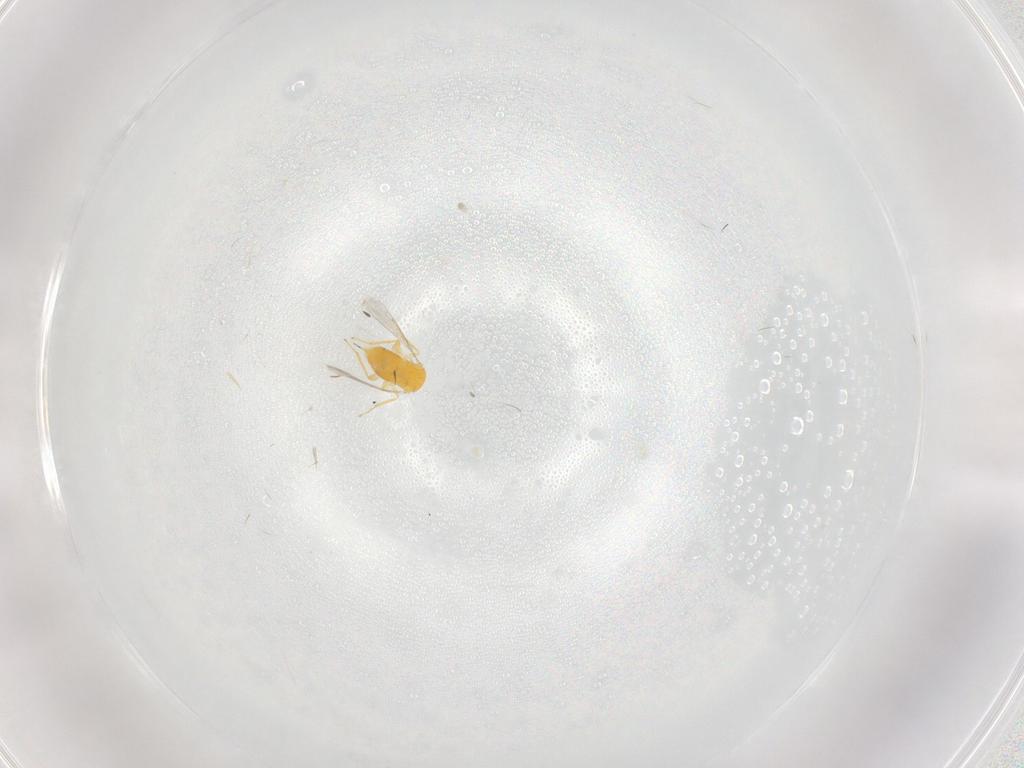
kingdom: Animalia
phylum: Arthropoda
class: Insecta
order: Hymenoptera
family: Aphelinidae
